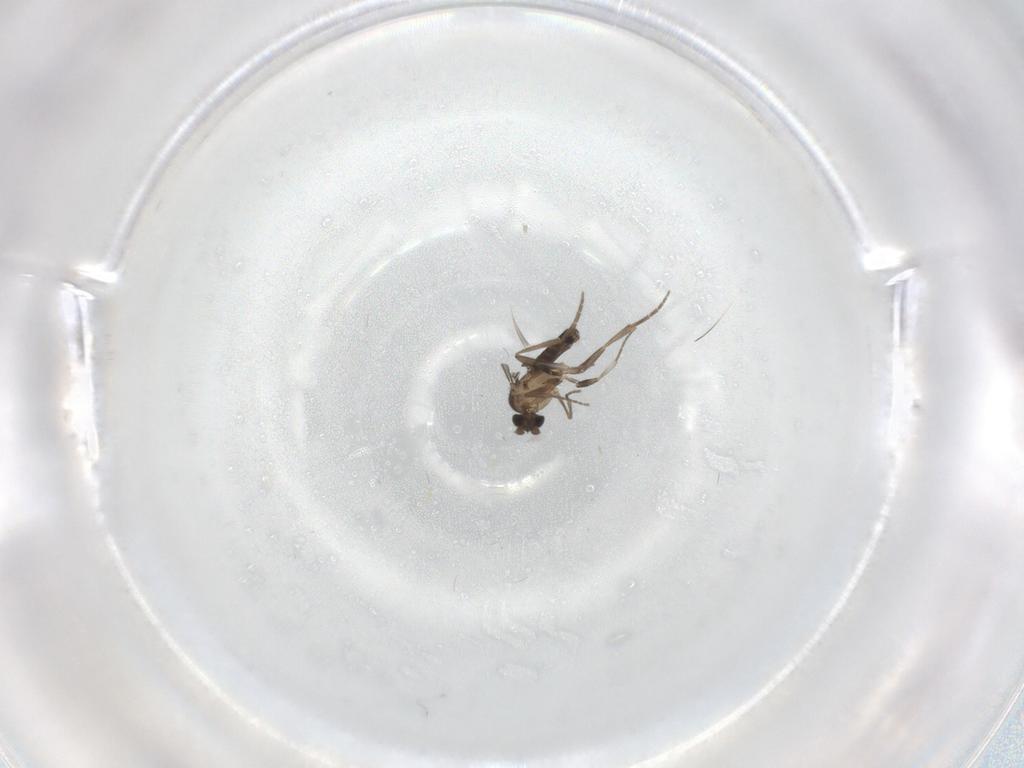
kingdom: Animalia
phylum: Arthropoda
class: Insecta
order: Diptera
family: Phoridae
